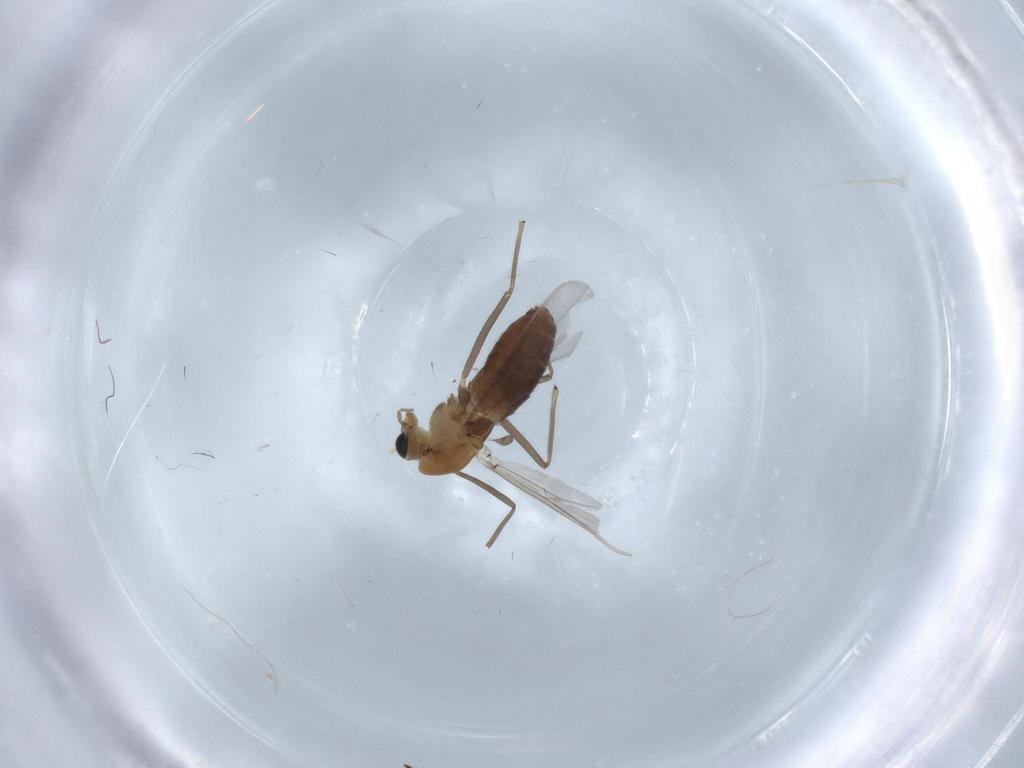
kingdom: Animalia
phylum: Arthropoda
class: Insecta
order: Diptera
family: Chironomidae
